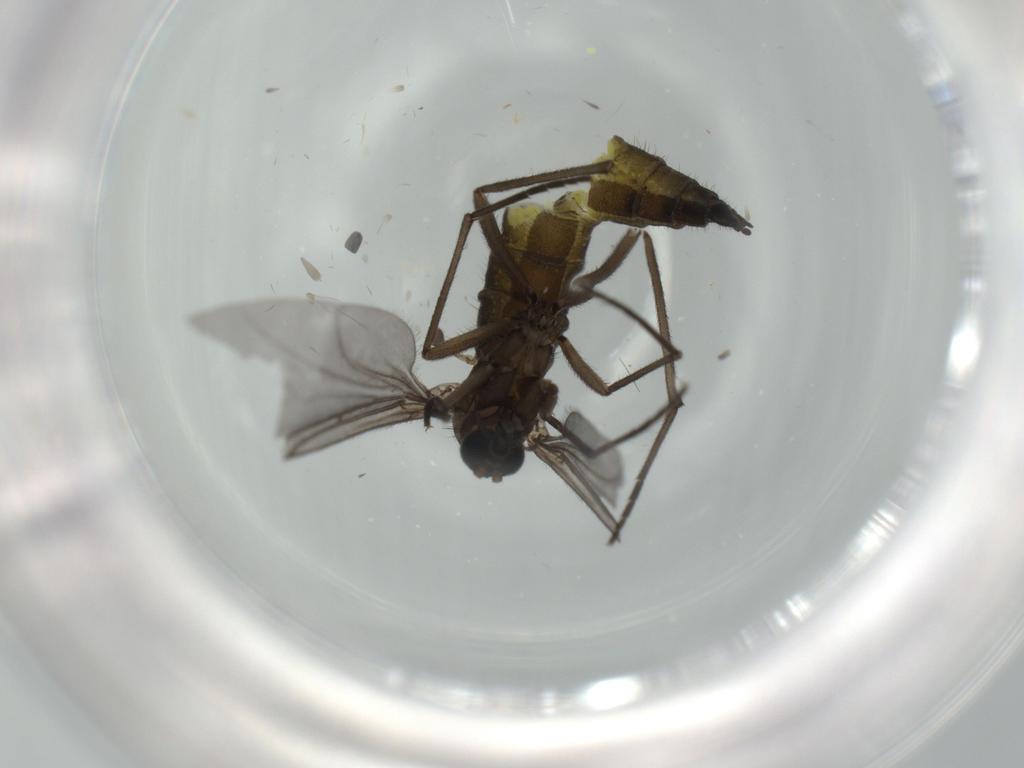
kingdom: Animalia
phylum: Arthropoda
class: Insecta
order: Diptera
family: Sciaridae
